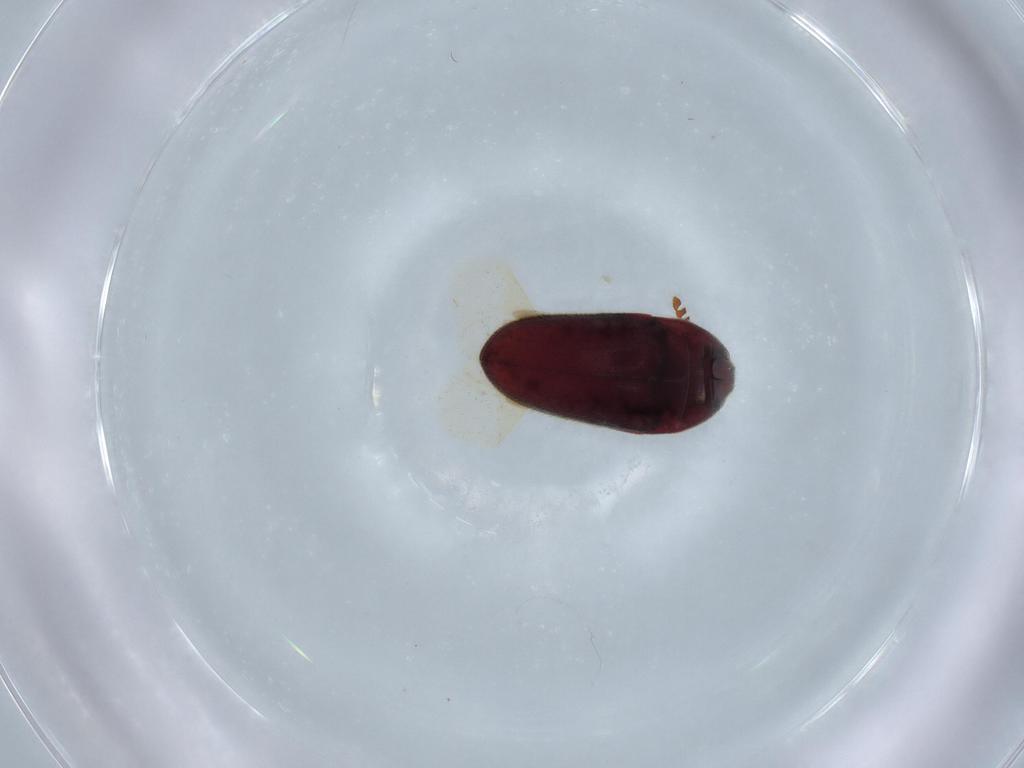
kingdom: Animalia
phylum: Arthropoda
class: Insecta
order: Coleoptera
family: Throscidae
